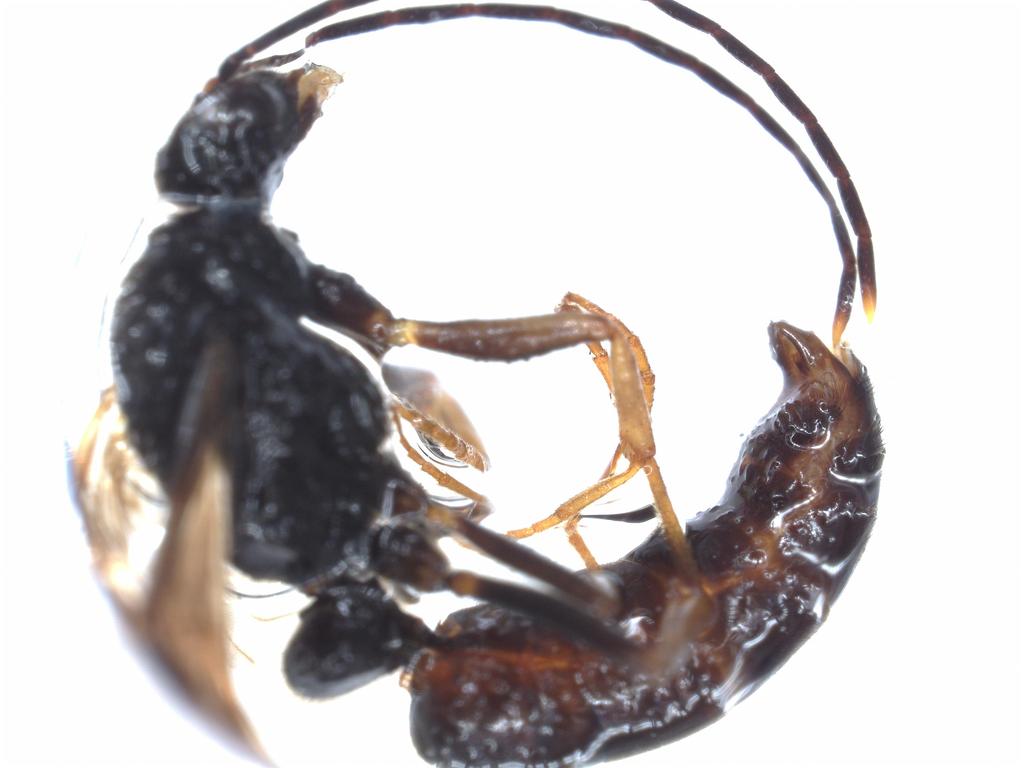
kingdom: Animalia
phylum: Arthropoda
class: Insecta
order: Hymenoptera
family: Formicidae
